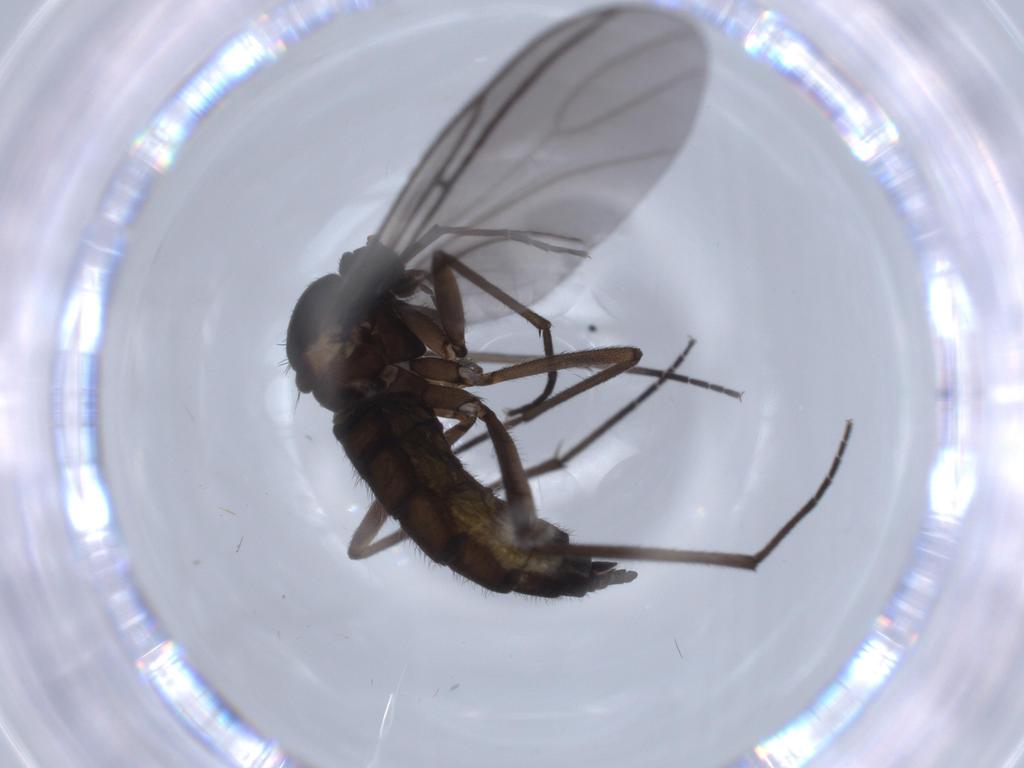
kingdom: Animalia
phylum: Arthropoda
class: Insecta
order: Diptera
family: Sciaridae
